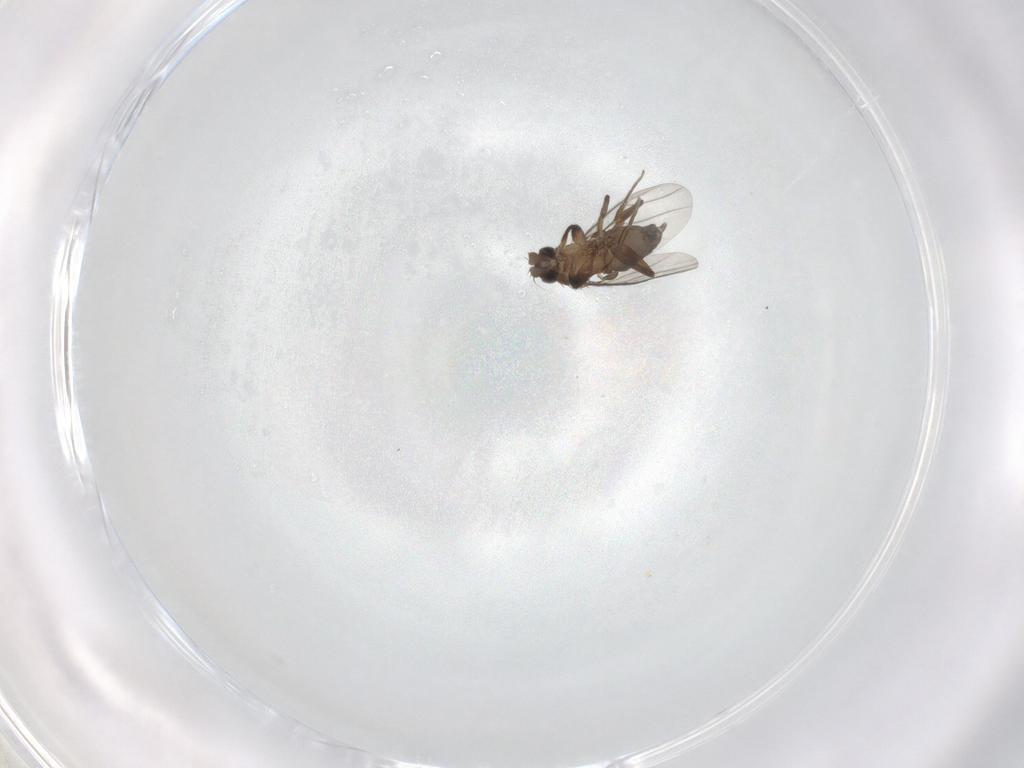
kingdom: Animalia
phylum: Arthropoda
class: Insecta
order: Diptera
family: Phoridae
